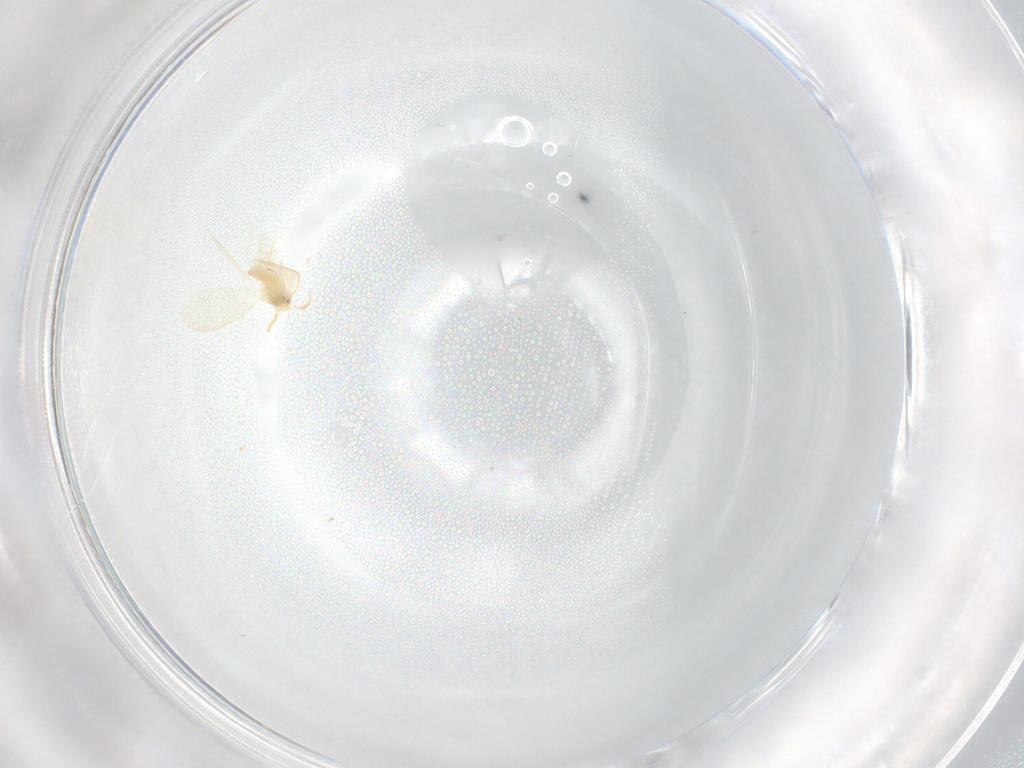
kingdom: Animalia
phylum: Arthropoda
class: Insecta
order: Hemiptera
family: Aleyrodidae
